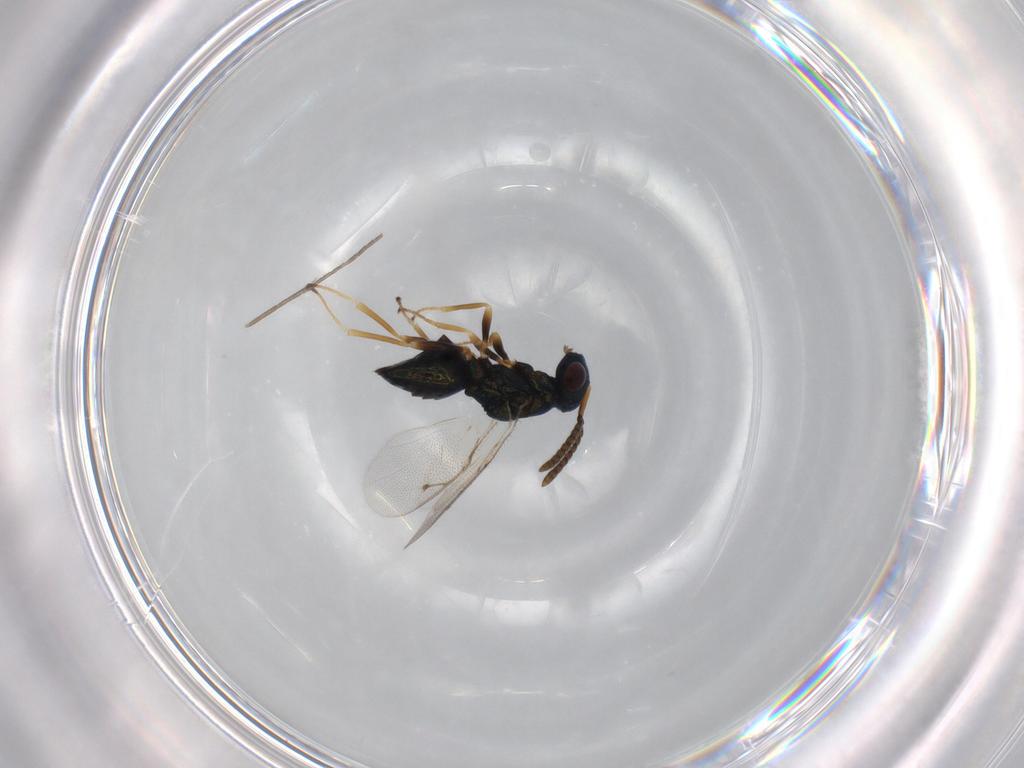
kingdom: Animalia
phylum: Arthropoda
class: Insecta
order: Hymenoptera
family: Pteromalidae
